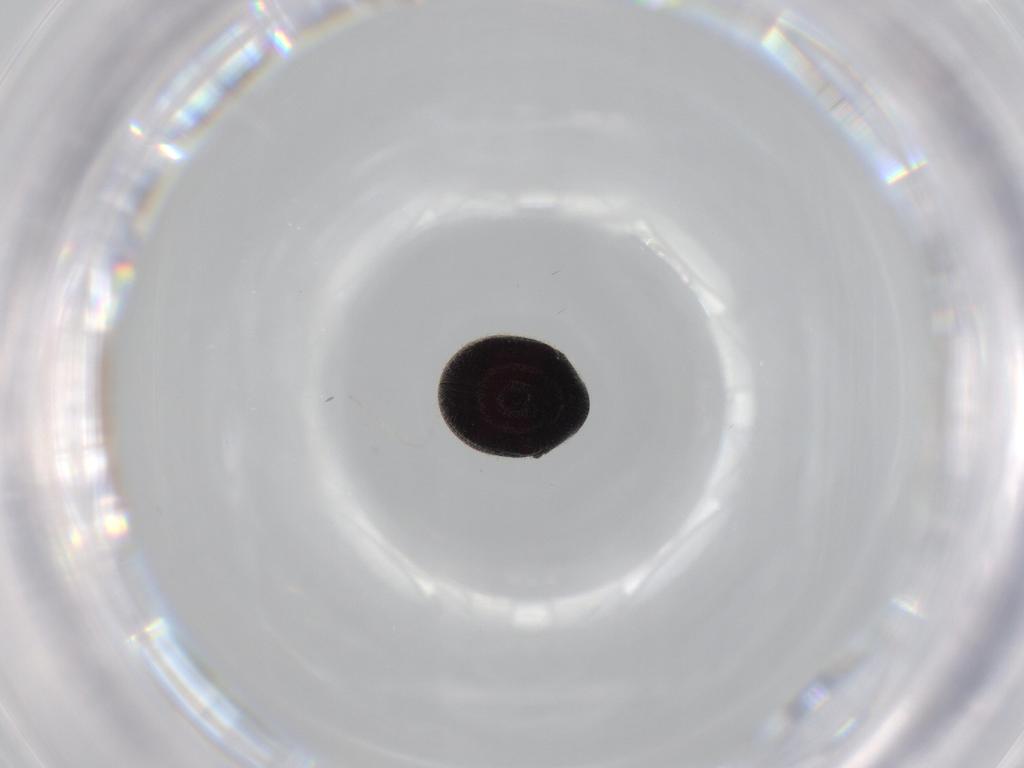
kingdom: Animalia
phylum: Arthropoda
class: Insecta
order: Coleoptera
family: Ptinidae
